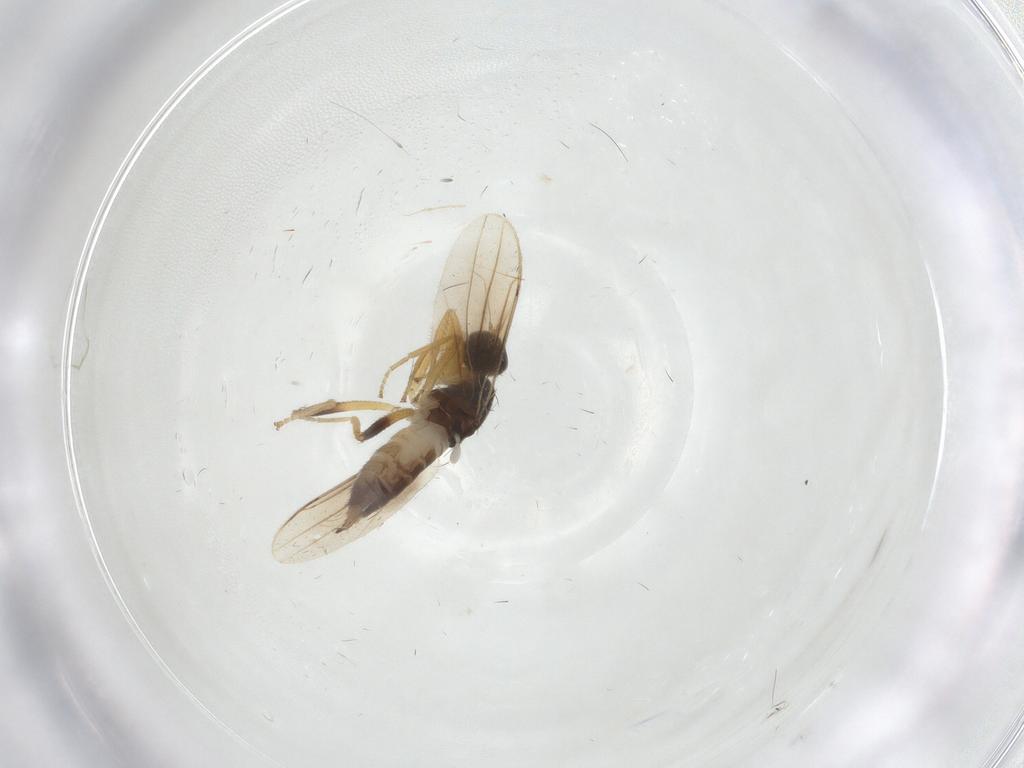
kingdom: Animalia
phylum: Arthropoda
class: Insecta
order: Diptera
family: Hybotidae
